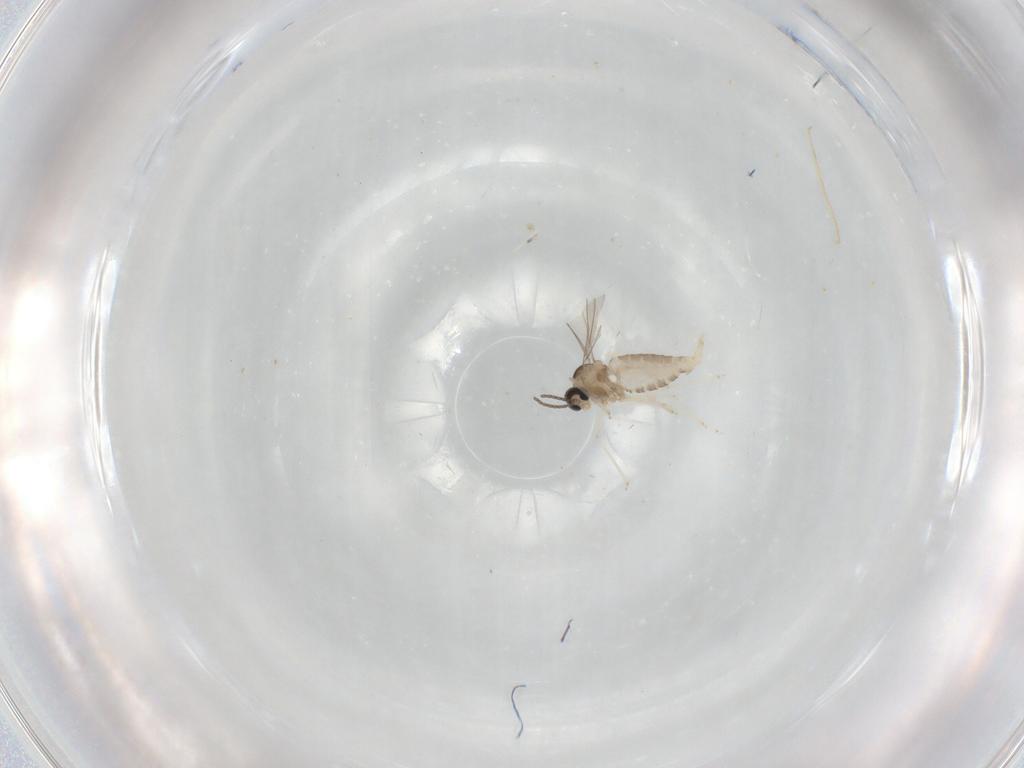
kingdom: Animalia
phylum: Arthropoda
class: Insecta
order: Diptera
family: Cecidomyiidae
